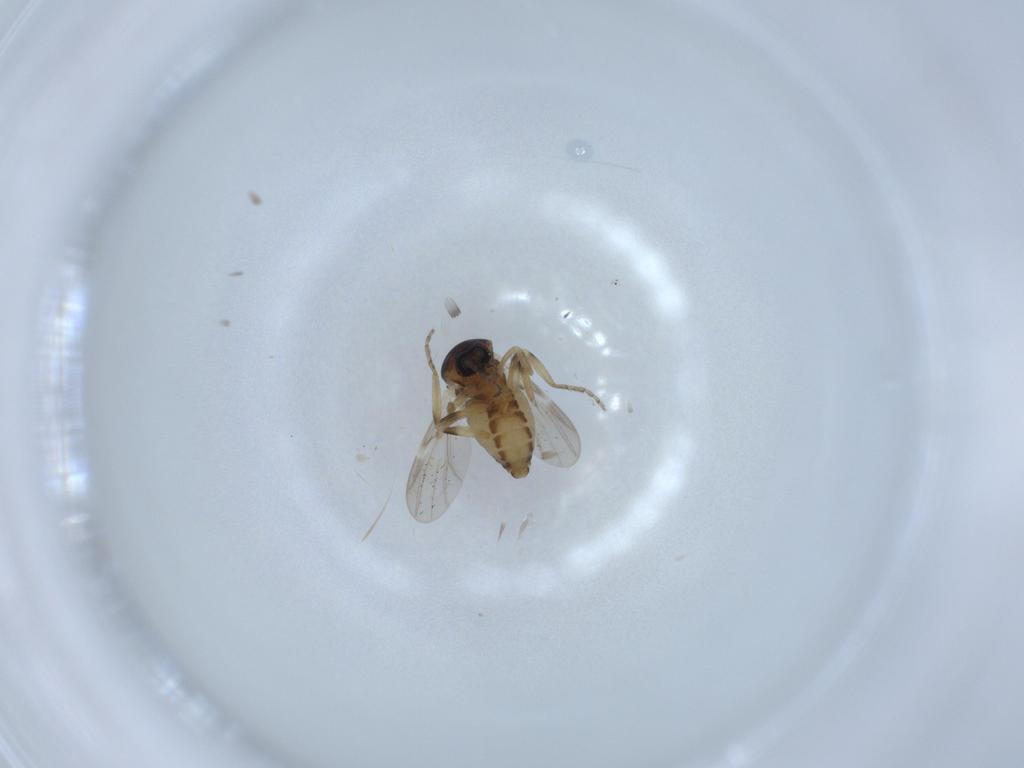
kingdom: Animalia
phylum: Arthropoda
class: Insecta
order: Diptera
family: Ceratopogonidae
